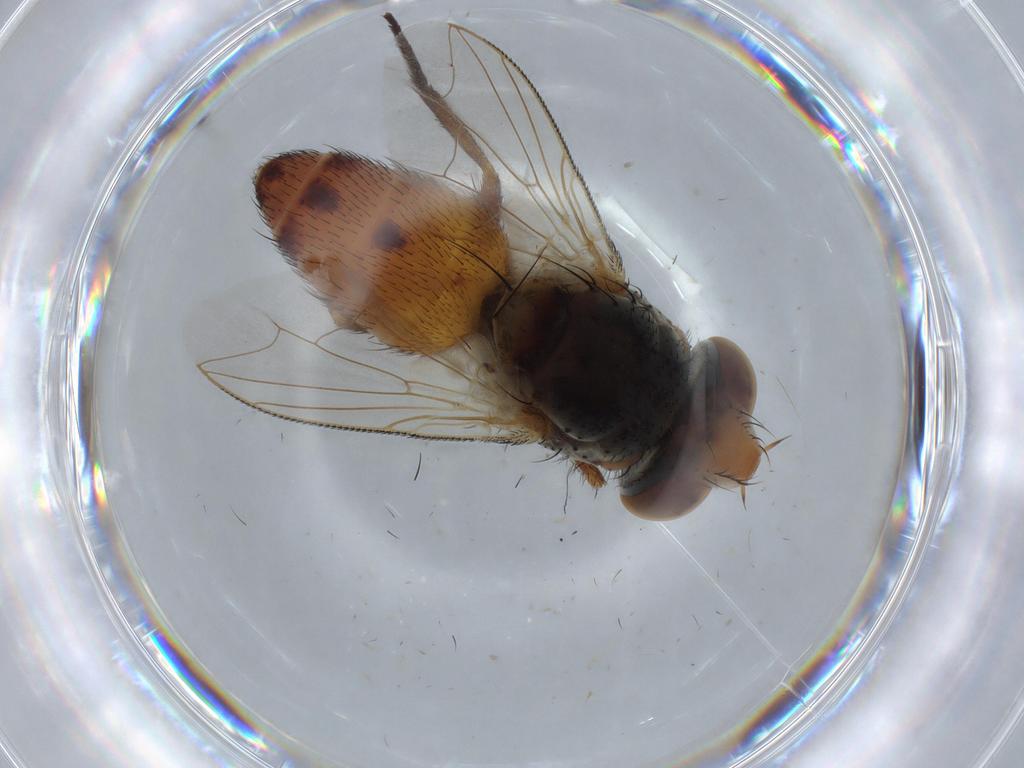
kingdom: Animalia
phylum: Arthropoda
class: Insecta
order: Diptera
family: Sarcophagidae
